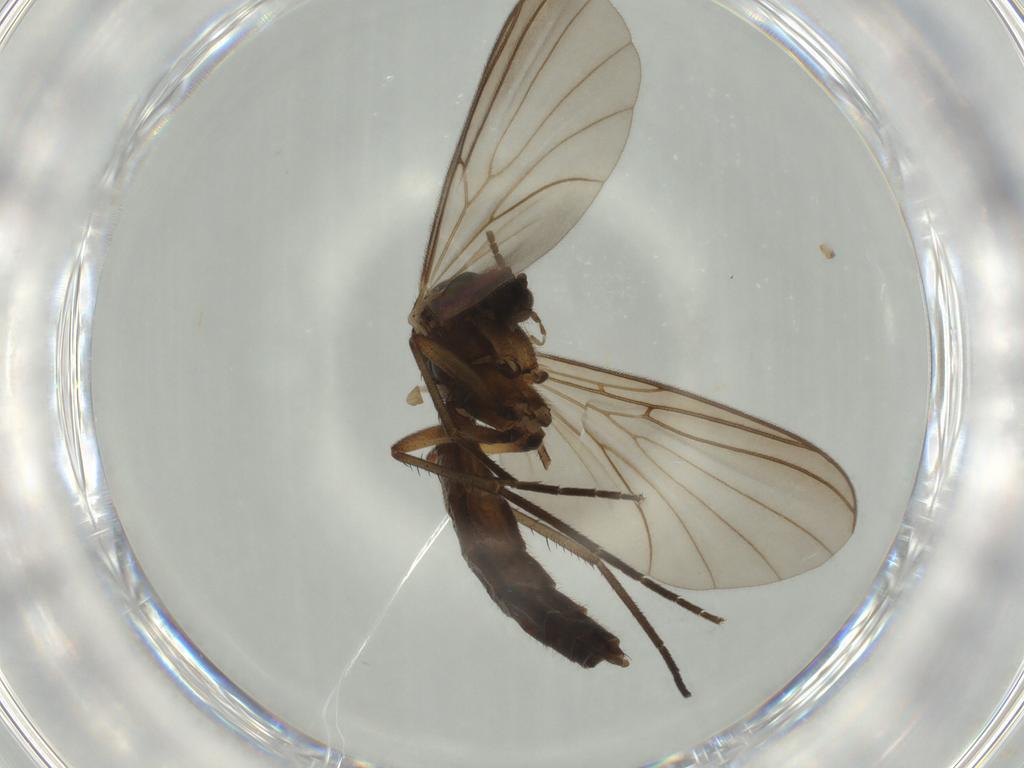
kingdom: Animalia
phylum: Arthropoda
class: Insecta
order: Diptera
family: Mycetophilidae
